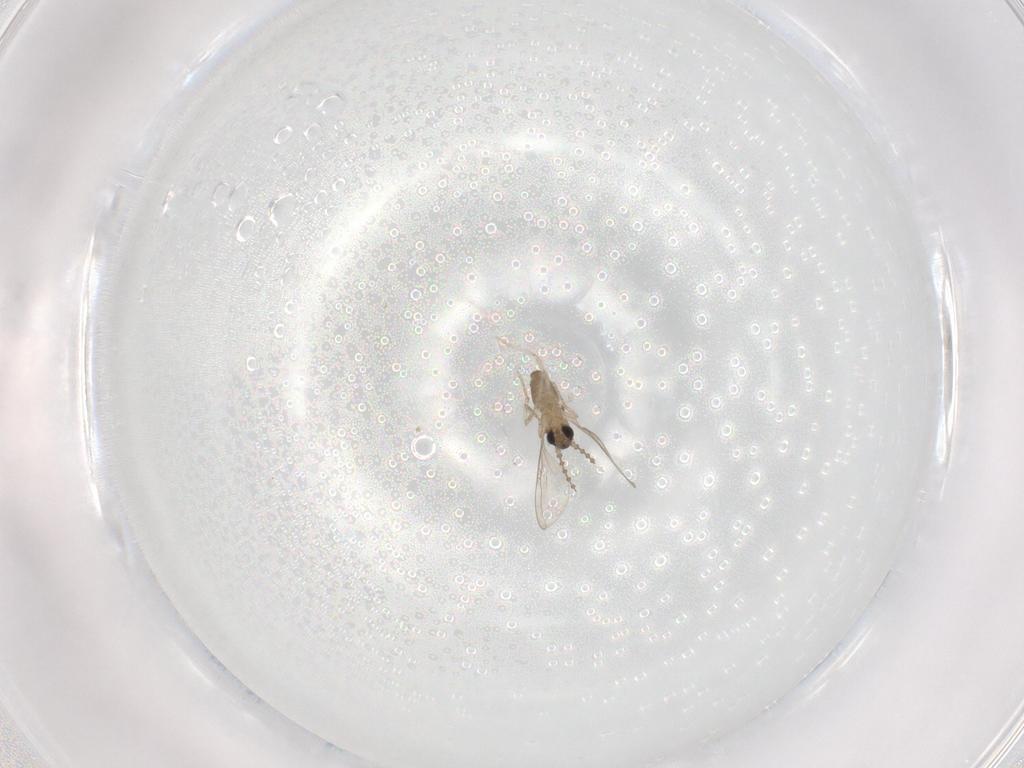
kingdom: Animalia
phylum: Arthropoda
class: Insecta
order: Diptera
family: Cecidomyiidae
